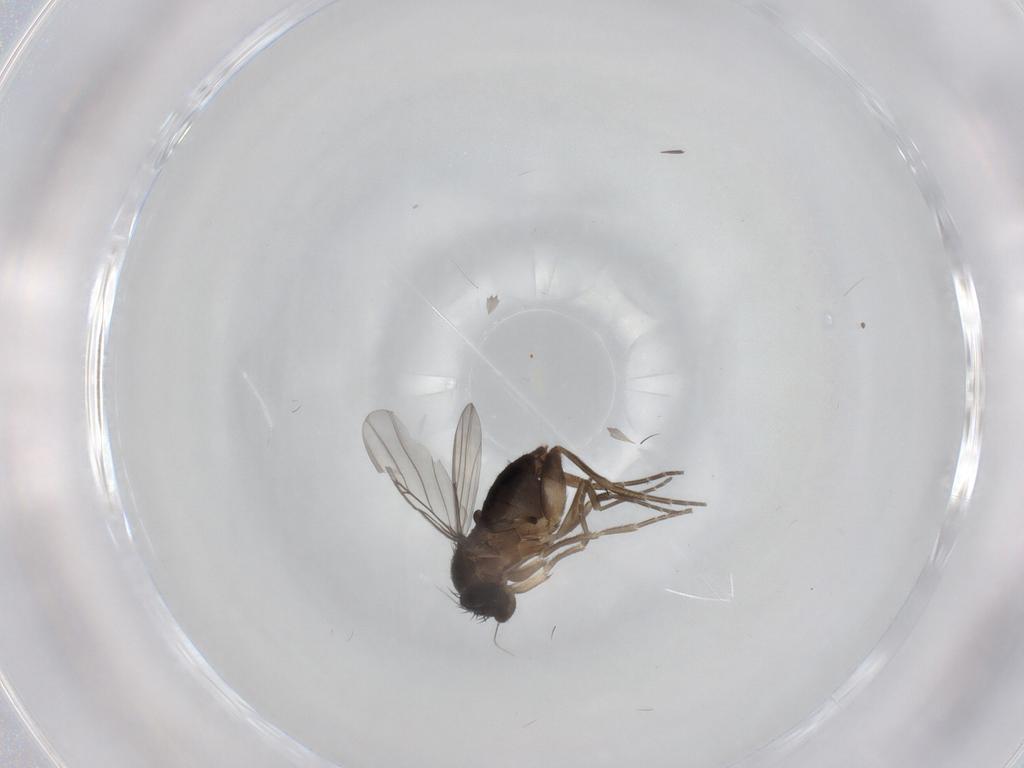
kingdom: Animalia
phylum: Arthropoda
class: Insecta
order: Diptera
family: Phoridae
